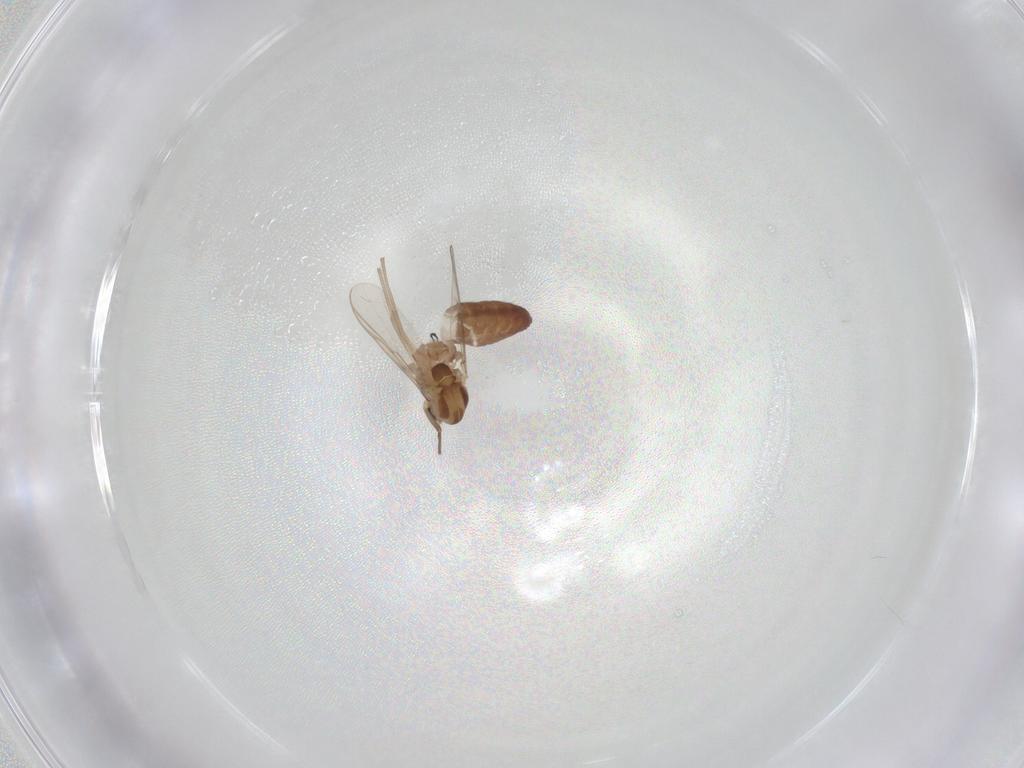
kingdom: Animalia
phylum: Arthropoda
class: Insecta
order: Diptera
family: Chironomidae
